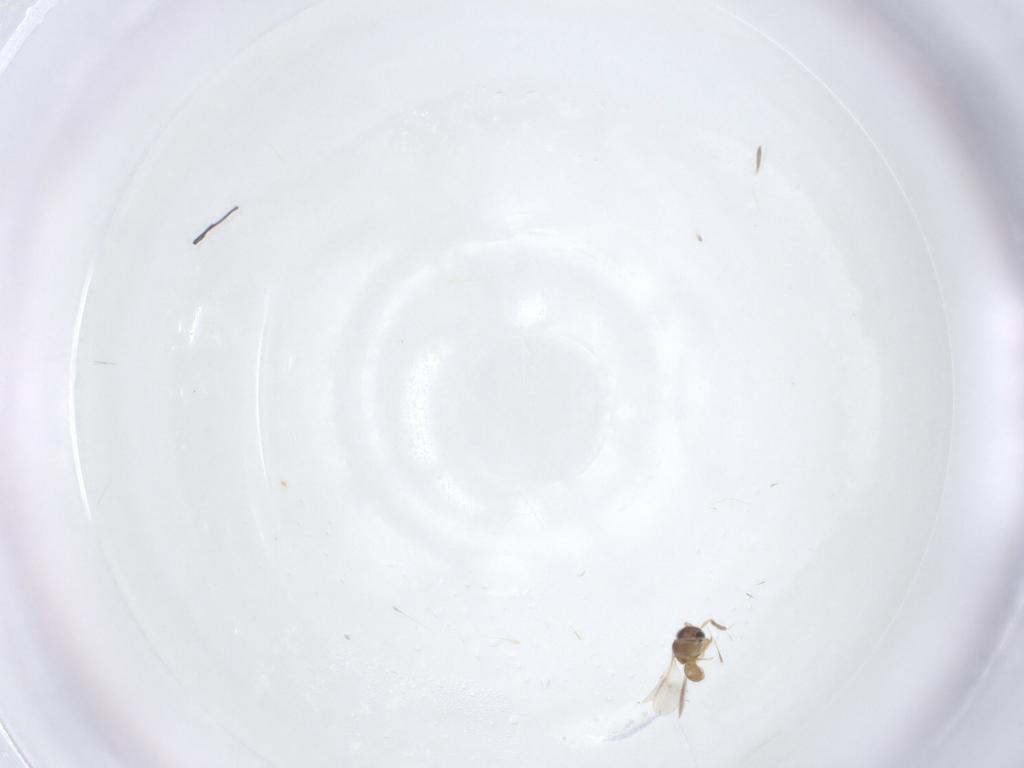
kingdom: Animalia
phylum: Arthropoda
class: Insecta
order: Hymenoptera
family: Scelionidae
